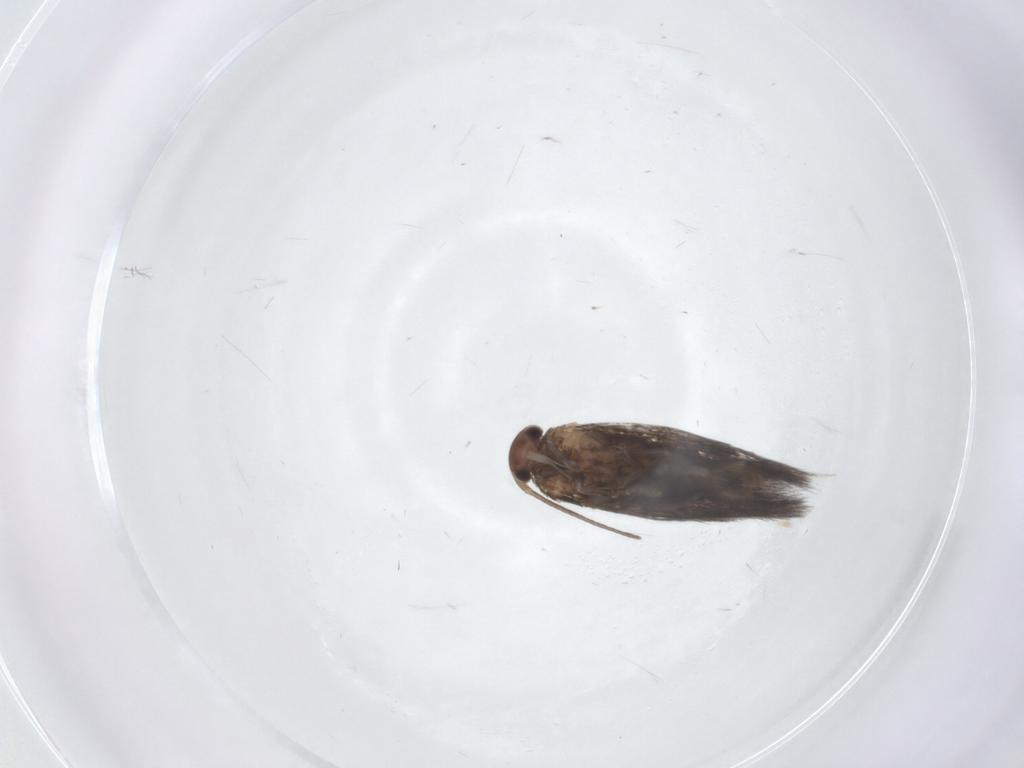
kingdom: Animalia
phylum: Arthropoda
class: Insecta
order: Lepidoptera
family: Elachistidae
